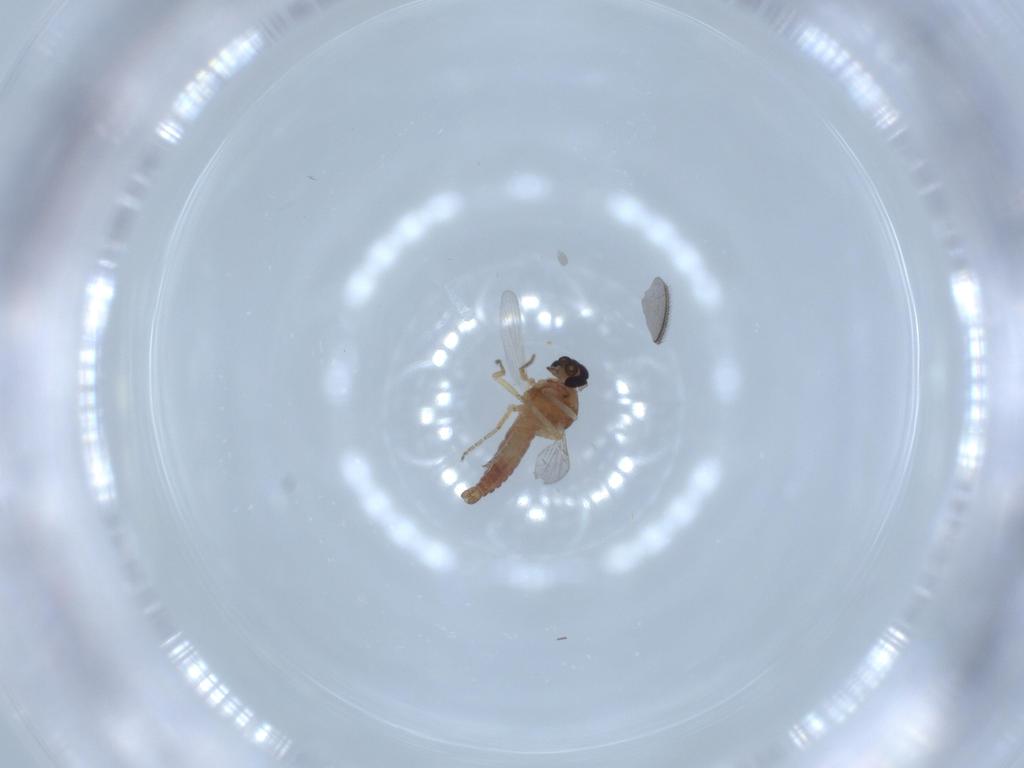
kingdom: Animalia
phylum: Arthropoda
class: Insecta
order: Diptera
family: Ceratopogonidae
